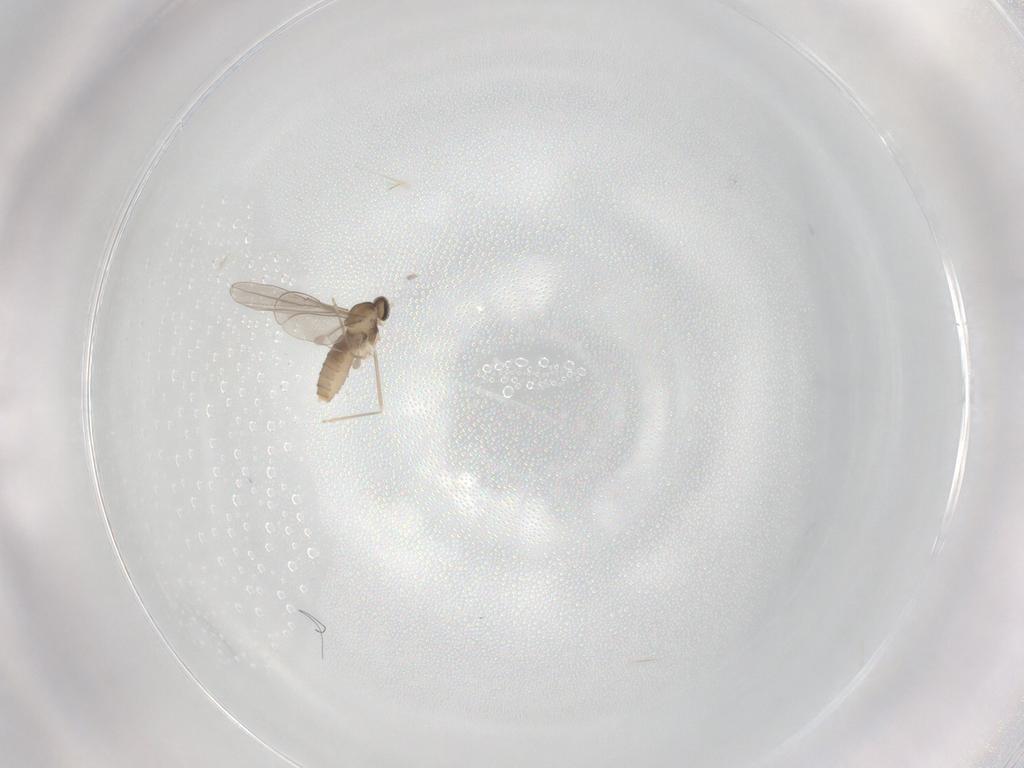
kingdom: Animalia
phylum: Arthropoda
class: Insecta
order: Diptera
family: Cecidomyiidae
